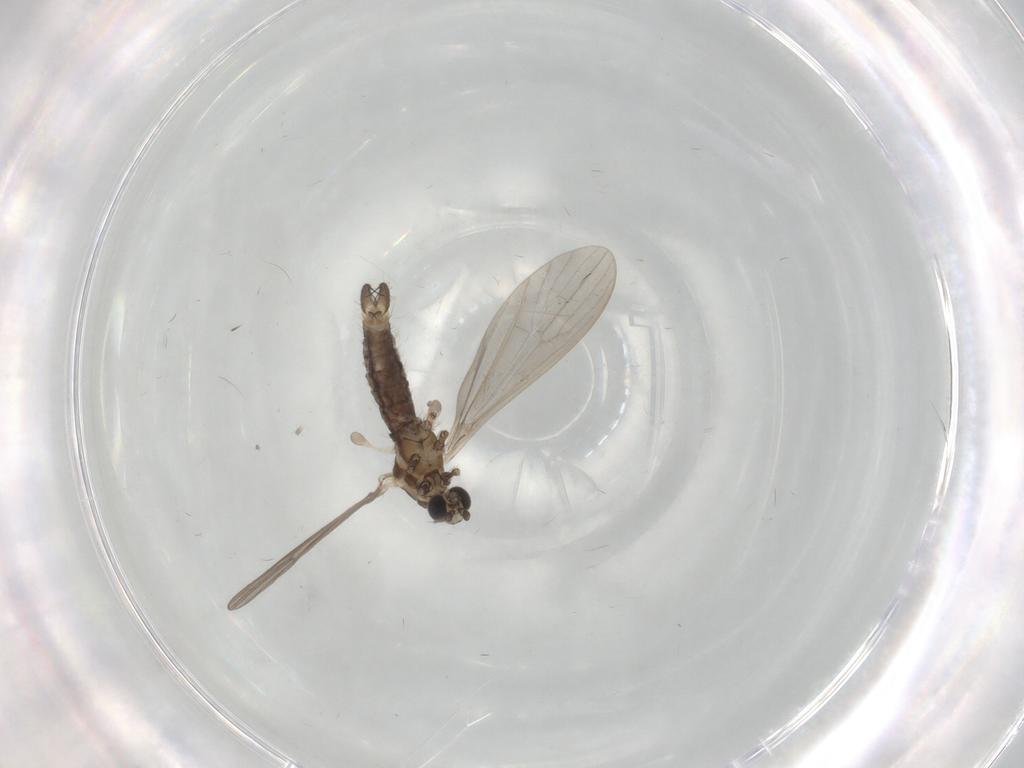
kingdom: Animalia
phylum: Arthropoda
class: Insecta
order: Diptera
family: Limoniidae
